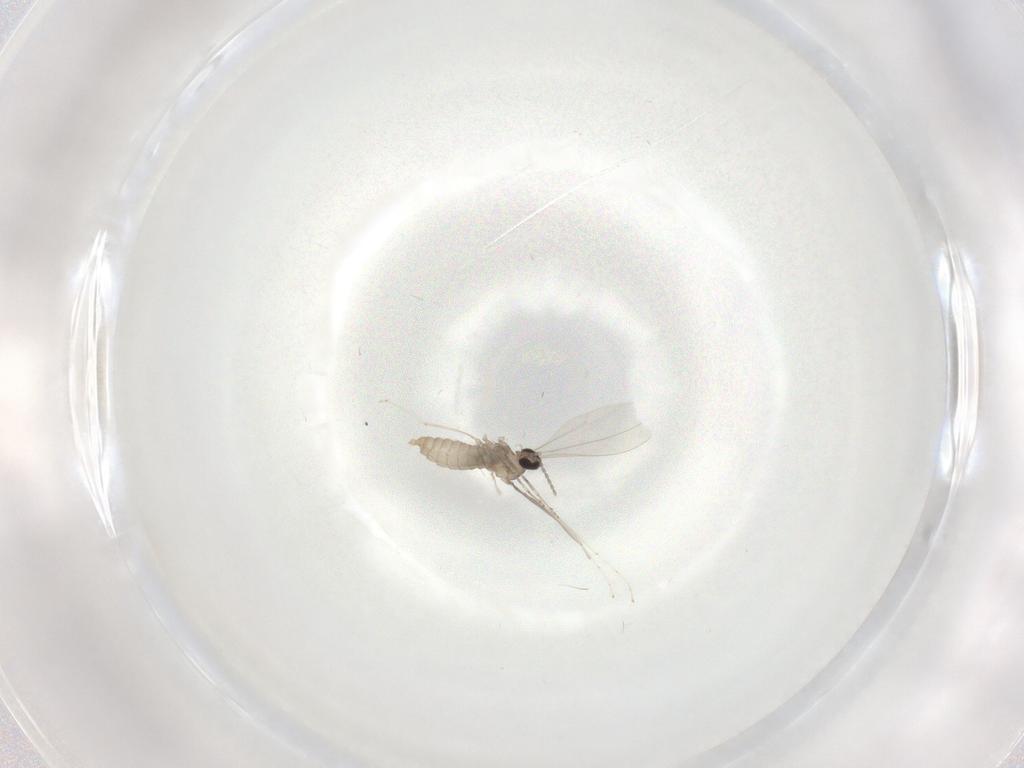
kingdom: Animalia
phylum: Arthropoda
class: Insecta
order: Diptera
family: Cecidomyiidae
